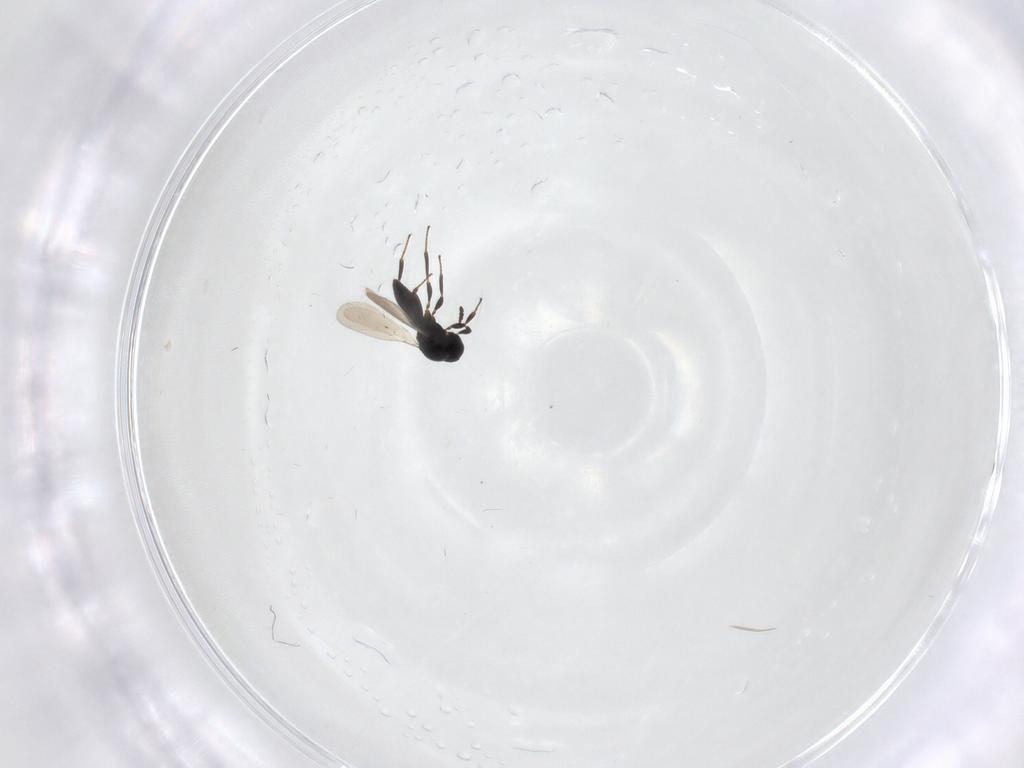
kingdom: Animalia
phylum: Arthropoda
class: Insecta
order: Hymenoptera
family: Platygastridae
